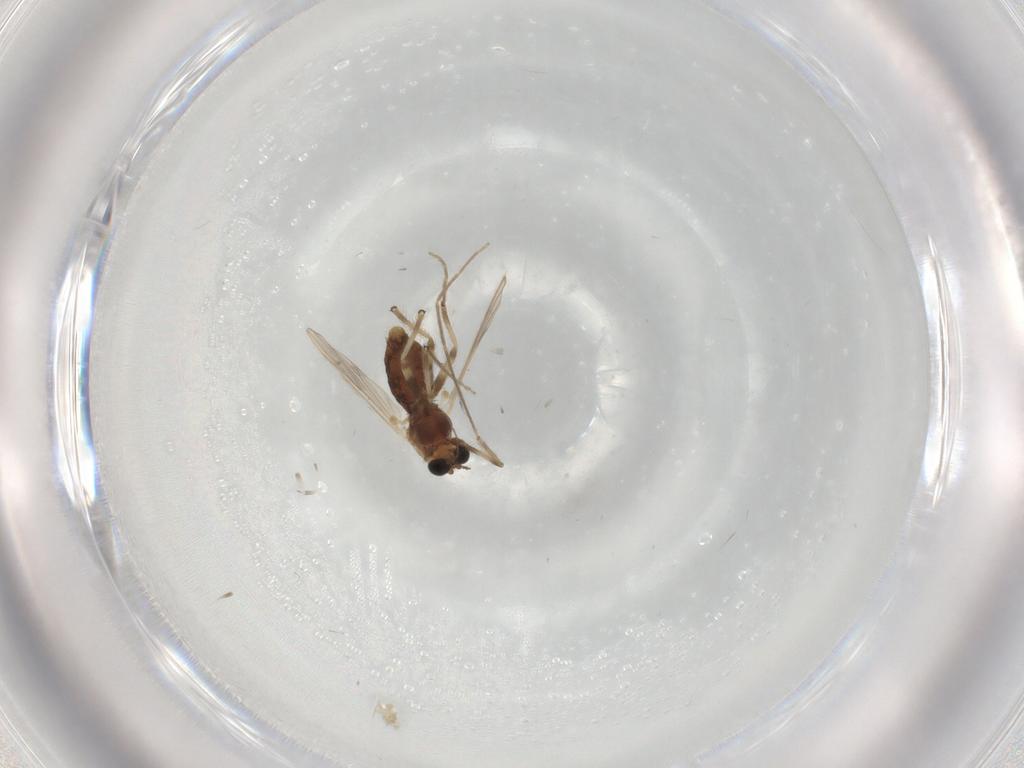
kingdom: Animalia
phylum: Arthropoda
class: Insecta
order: Diptera
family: Chironomidae
